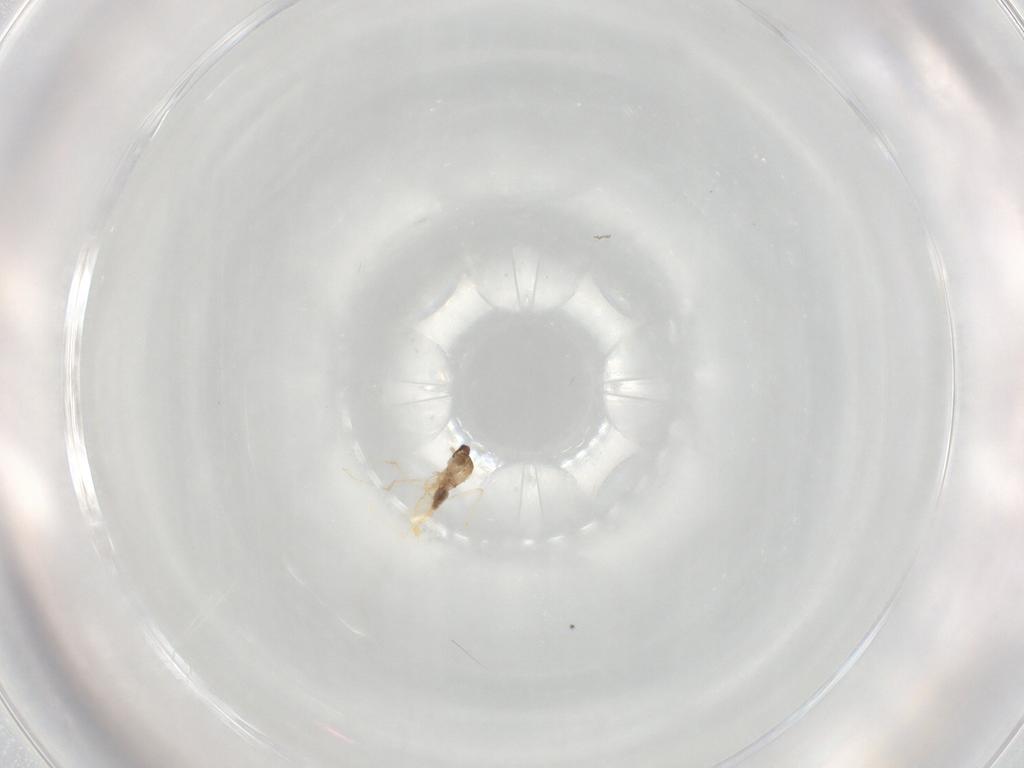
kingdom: Animalia
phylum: Arthropoda
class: Insecta
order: Diptera
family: Cecidomyiidae
